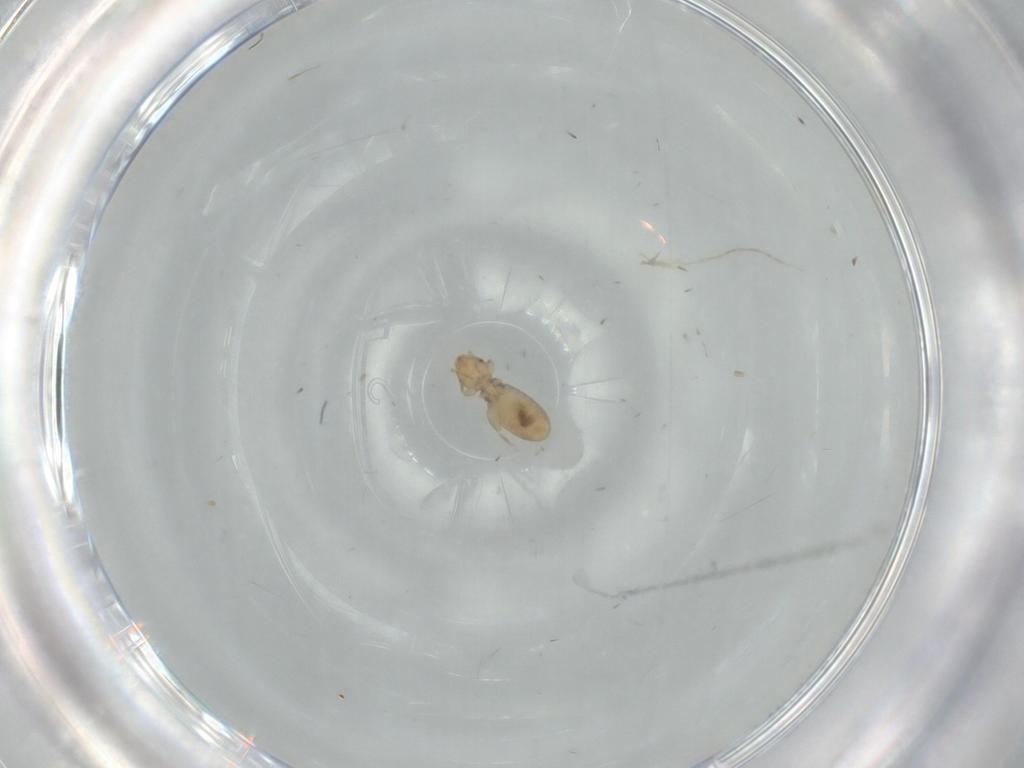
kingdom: Animalia
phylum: Arthropoda
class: Insecta
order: Psocodea
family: Liposcelididae
